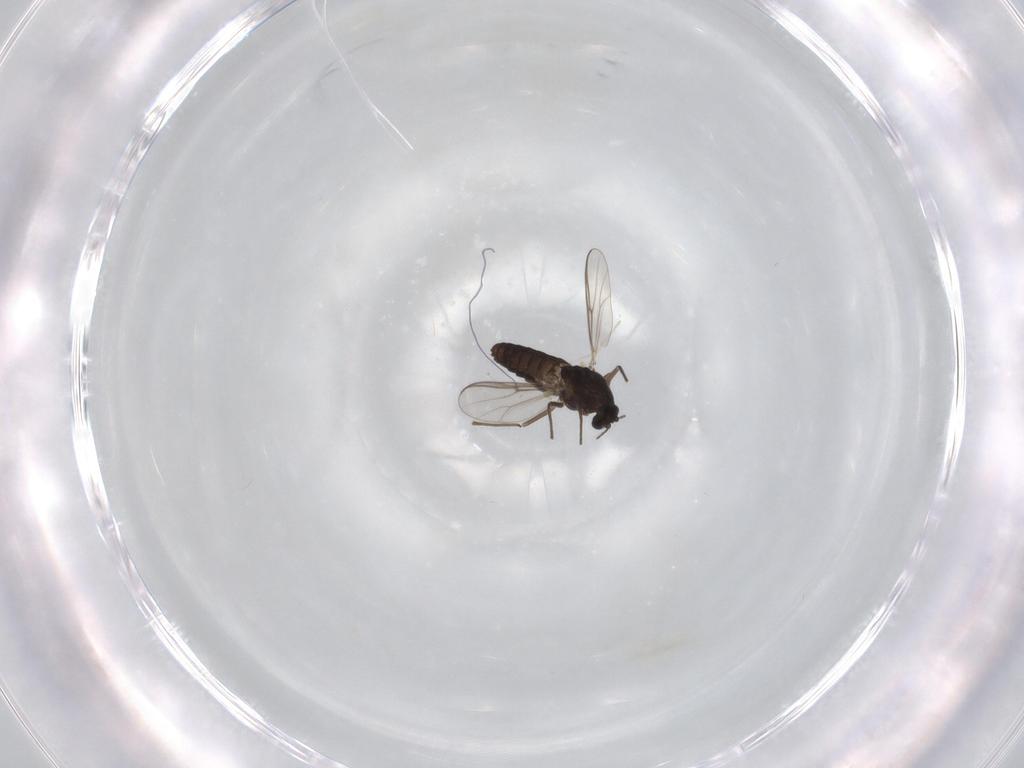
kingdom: Animalia
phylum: Arthropoda
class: Insecta
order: Diptera
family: Chironomidae
